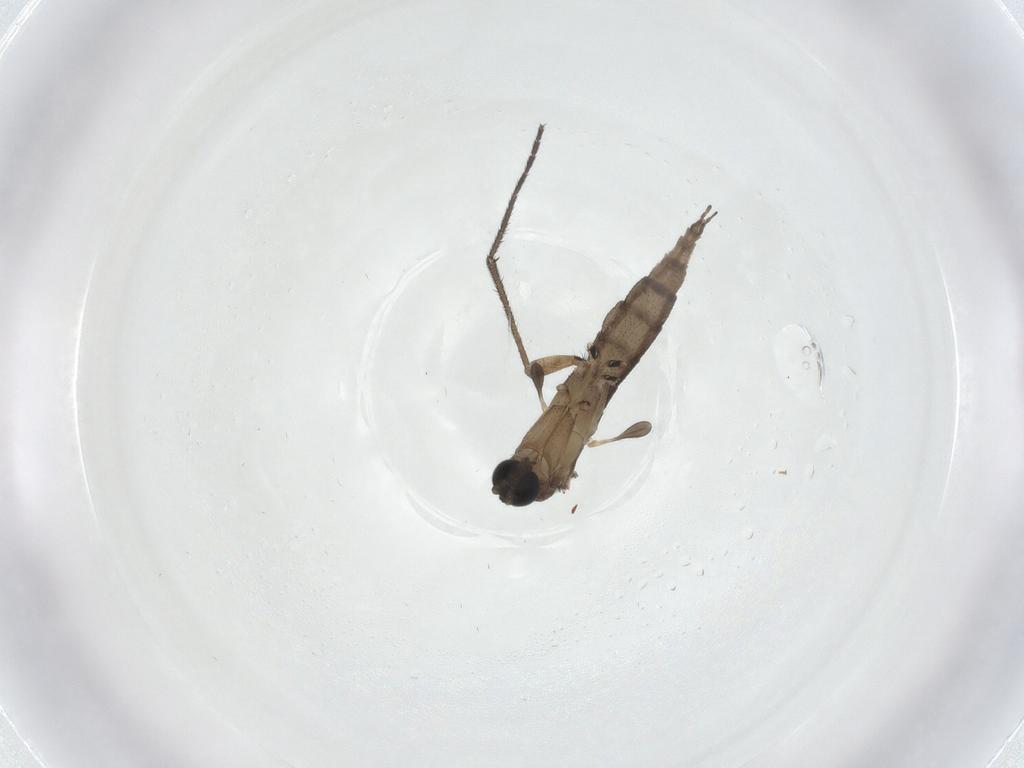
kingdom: Animalia
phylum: Arthropoda
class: Insecta
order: Diptera
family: Sciaridae
